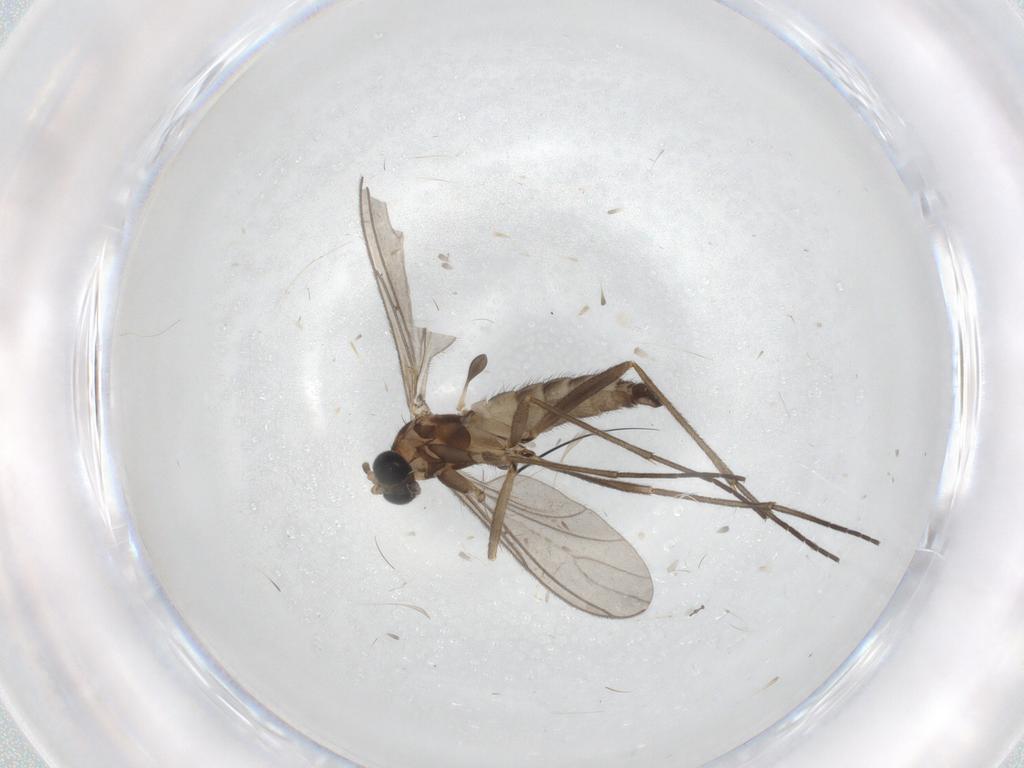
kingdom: Animalia
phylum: Arthropoda
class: Insecta
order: Diptera
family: Sciaridae
